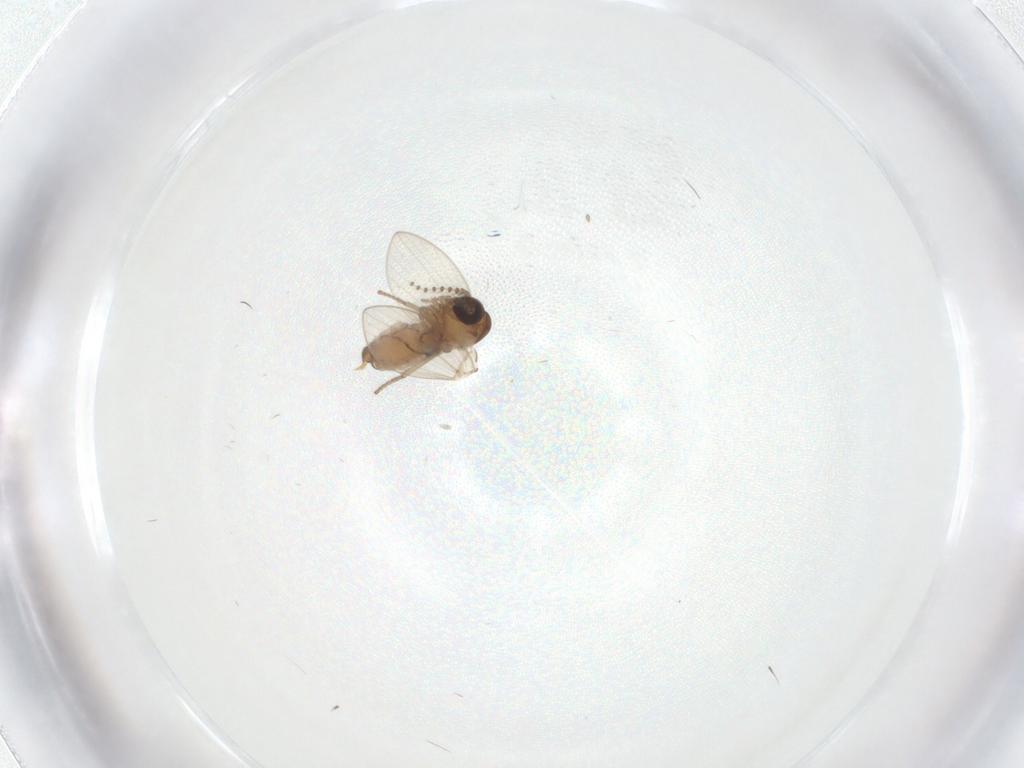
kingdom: Animalia
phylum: Arthropoda
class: Insecta
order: Diptera
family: Psychodidae
